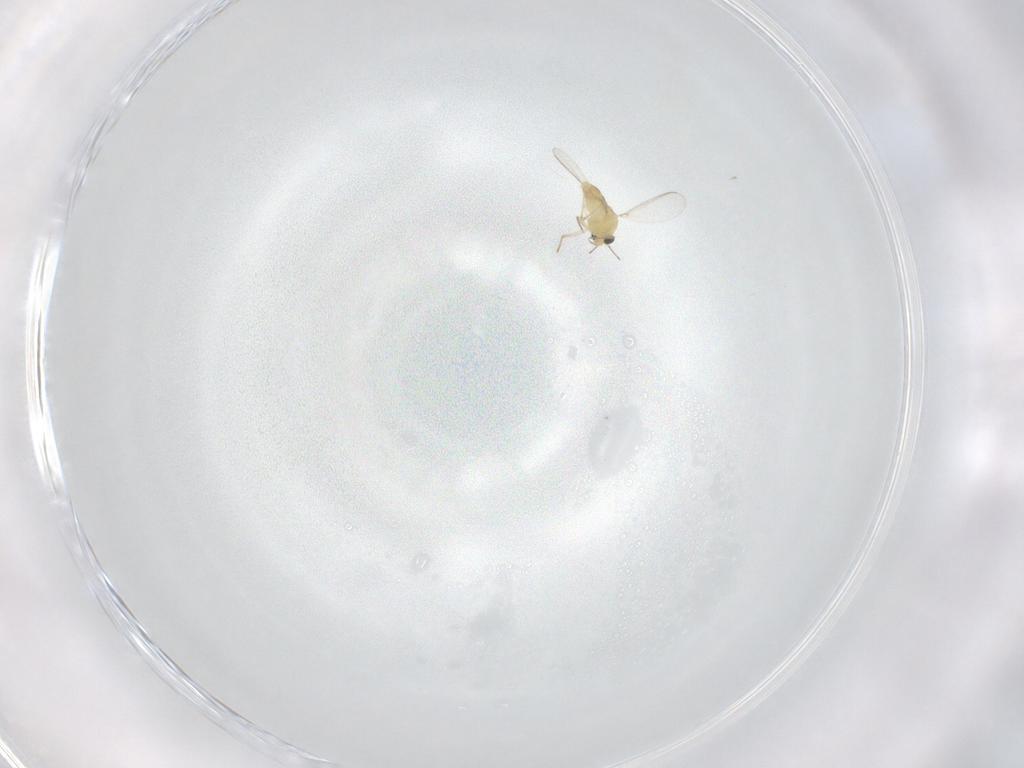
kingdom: Animalia
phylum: Arthropoda
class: Insecta
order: Diptera
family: Chironomidae
